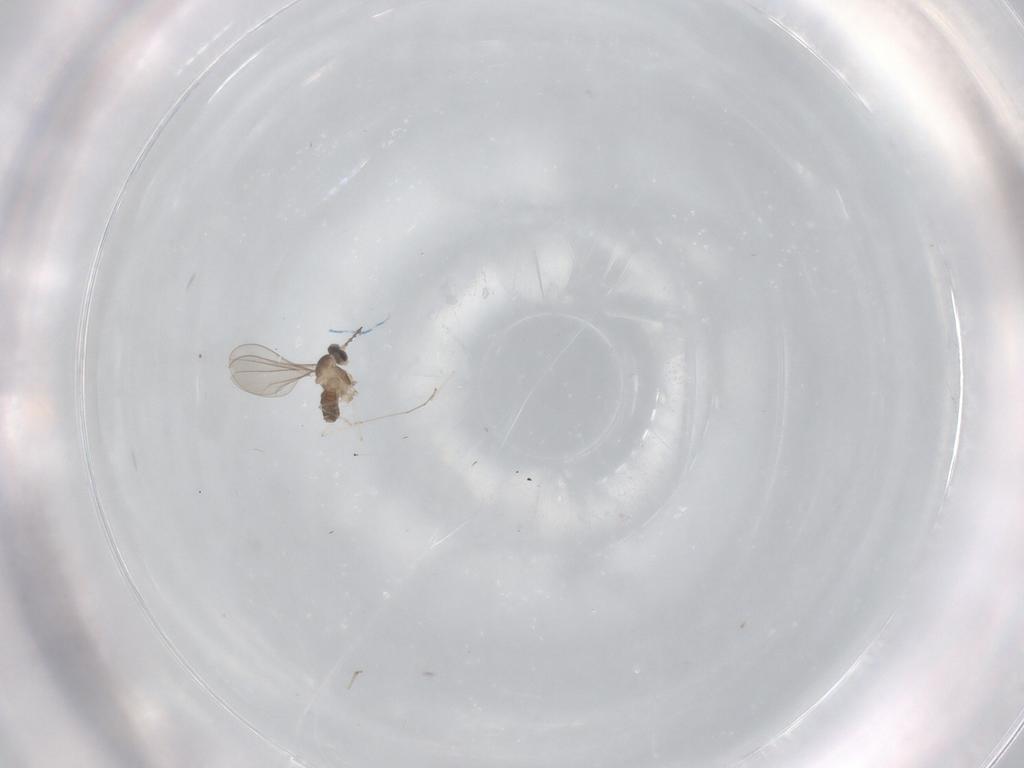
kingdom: Animalia
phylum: Arthropoda
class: Insecta
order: Diptera
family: Cecidomyiidae
